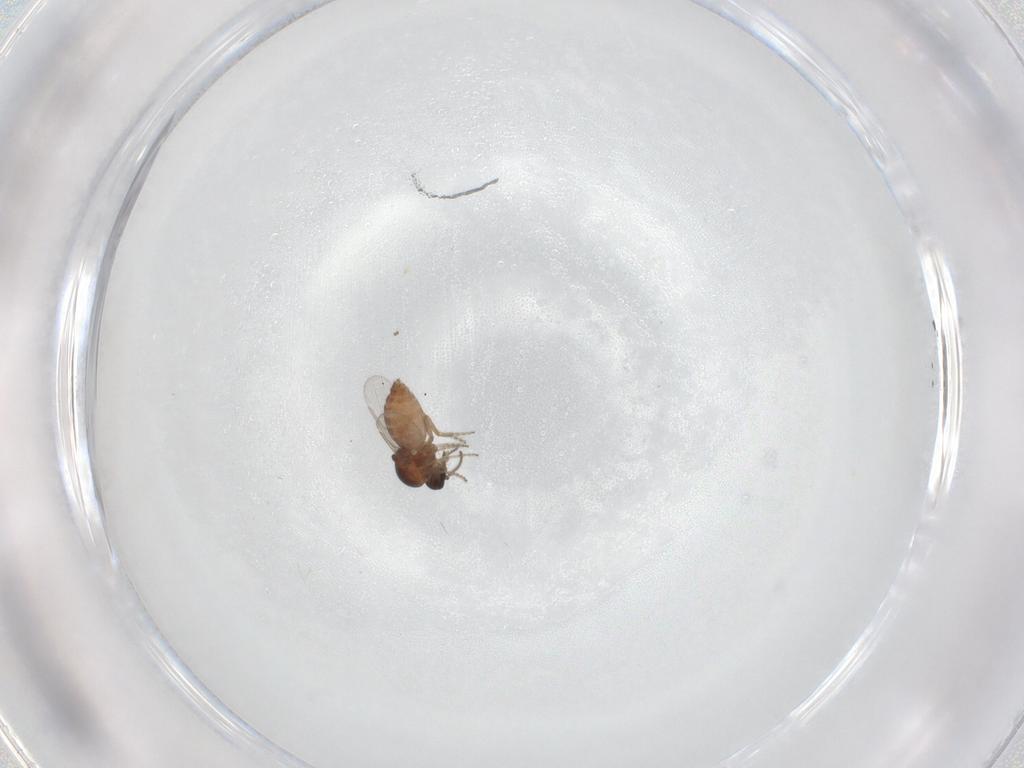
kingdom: Animalia
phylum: Arthropoda
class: Insecta
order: Diptera
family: Ceratopogonidae
